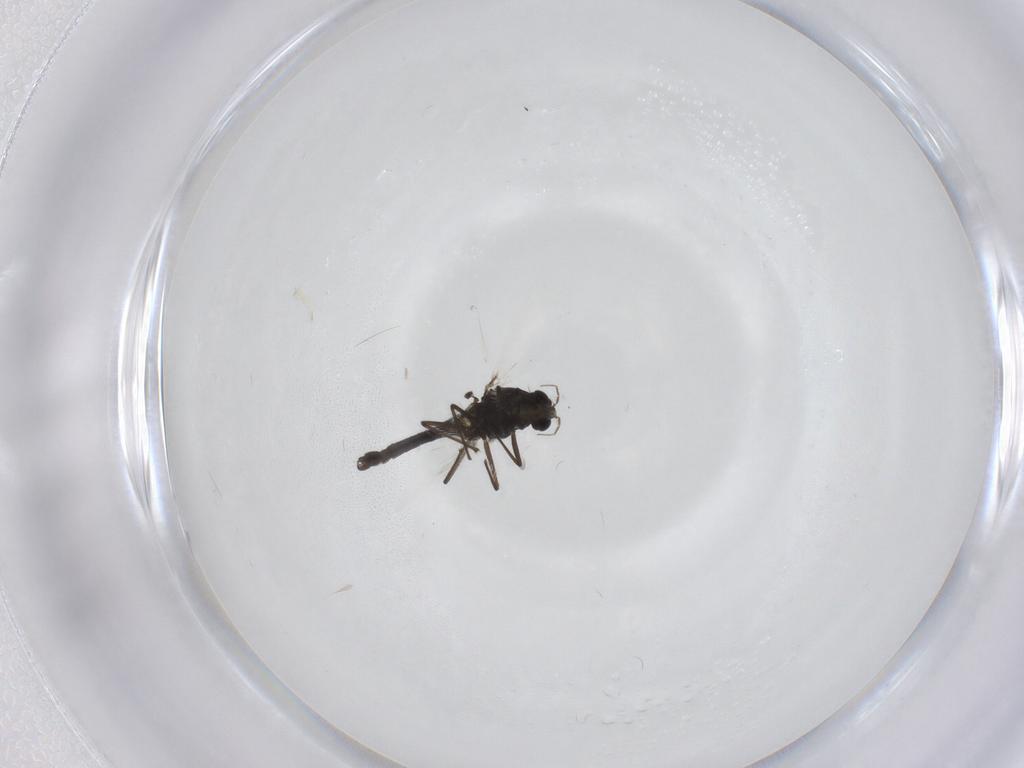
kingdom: Animalia
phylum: Arthropoda
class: Insecta
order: Diptera
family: Chironomidae
